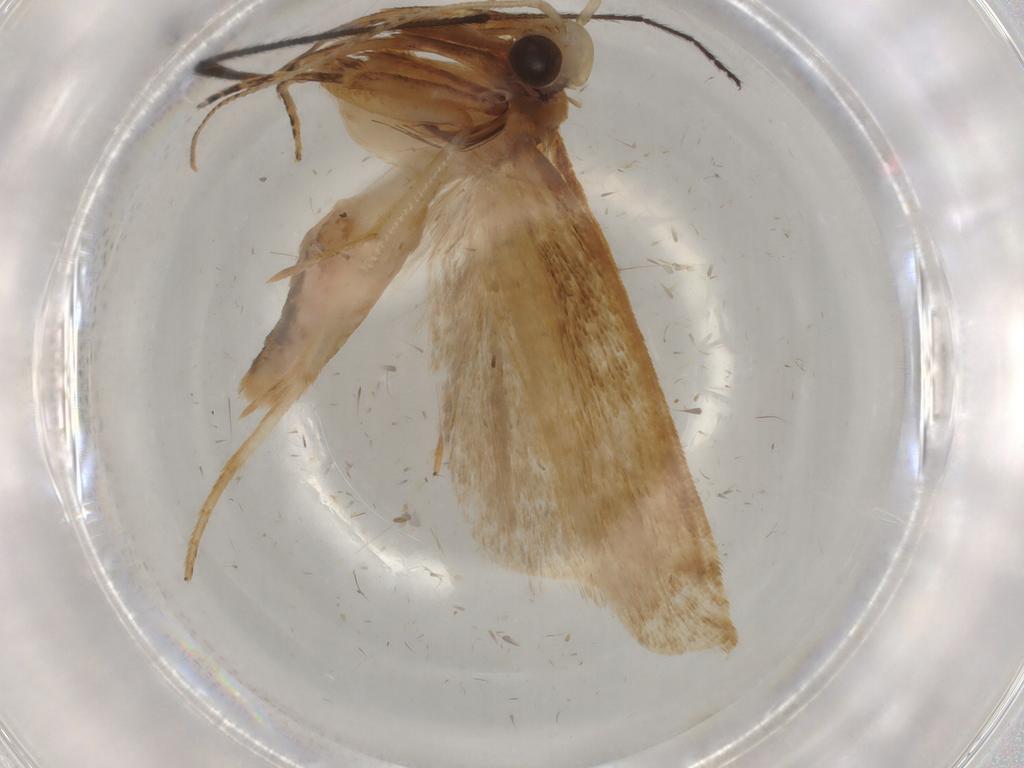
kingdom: Animalia
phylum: Arthropoda
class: Insecta
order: Lepidoptera
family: Gelechiidae
